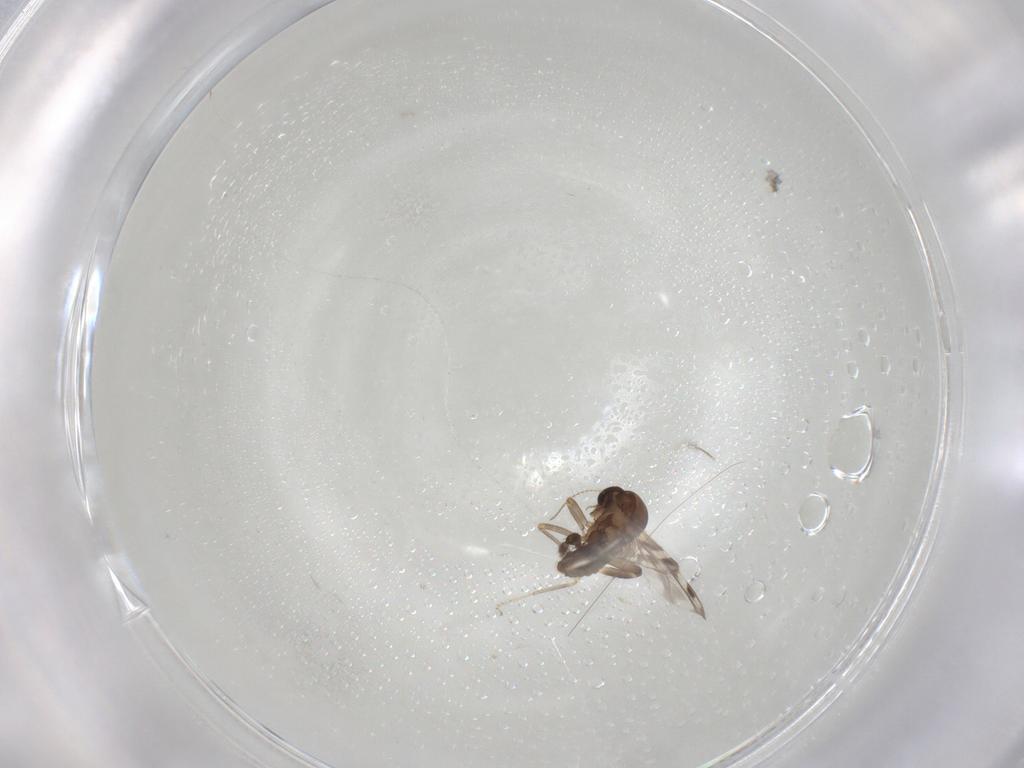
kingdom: Animalia
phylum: Arthropoda
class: Insecta
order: Diptera
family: Ceratopogonidae
